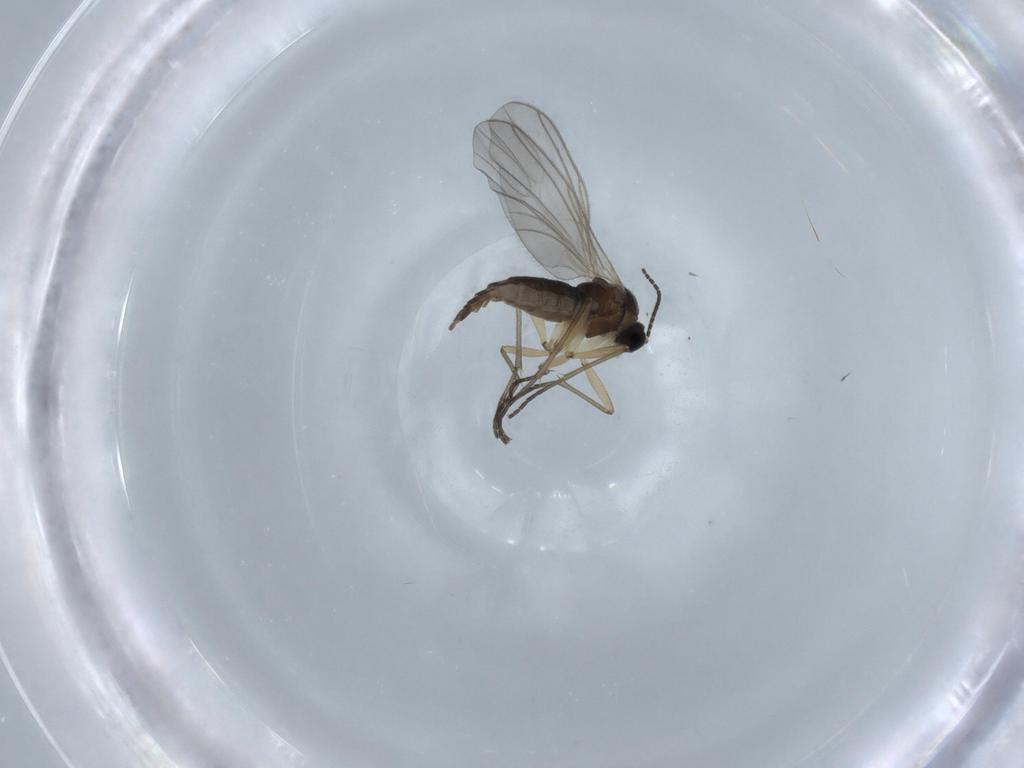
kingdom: Animalia
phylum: Arthropoda
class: Insecta
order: Diptera
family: Sciaridae
